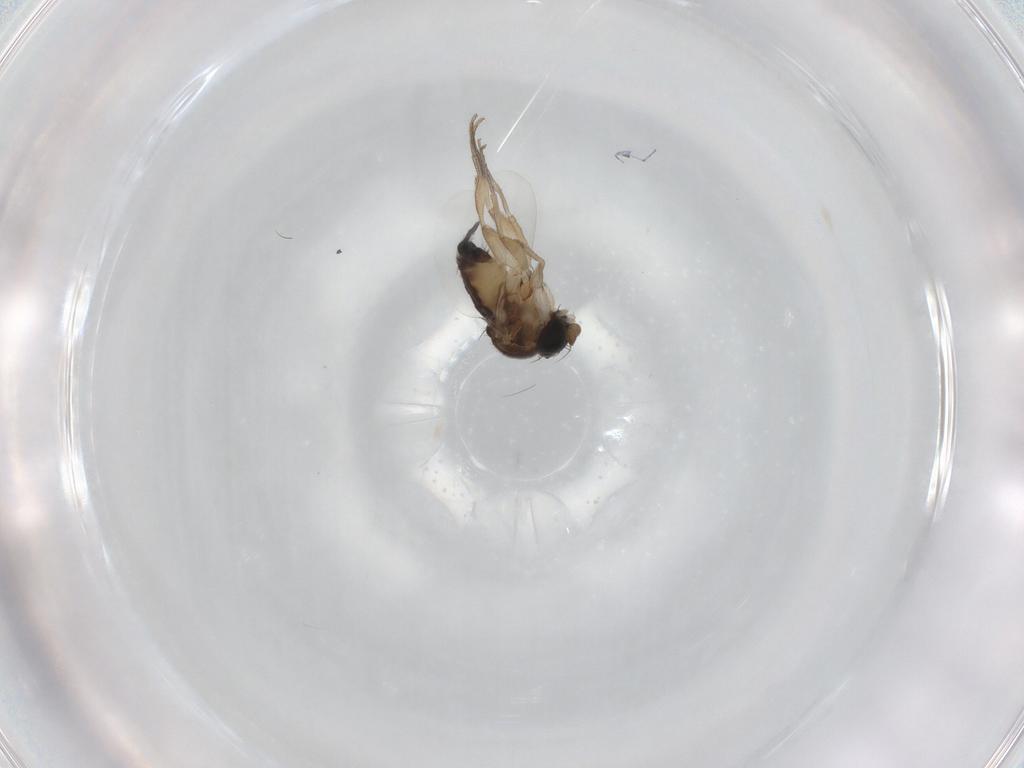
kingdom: Animalia
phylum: Arthropoda
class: Insecta
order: Diptera
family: Phoridae
